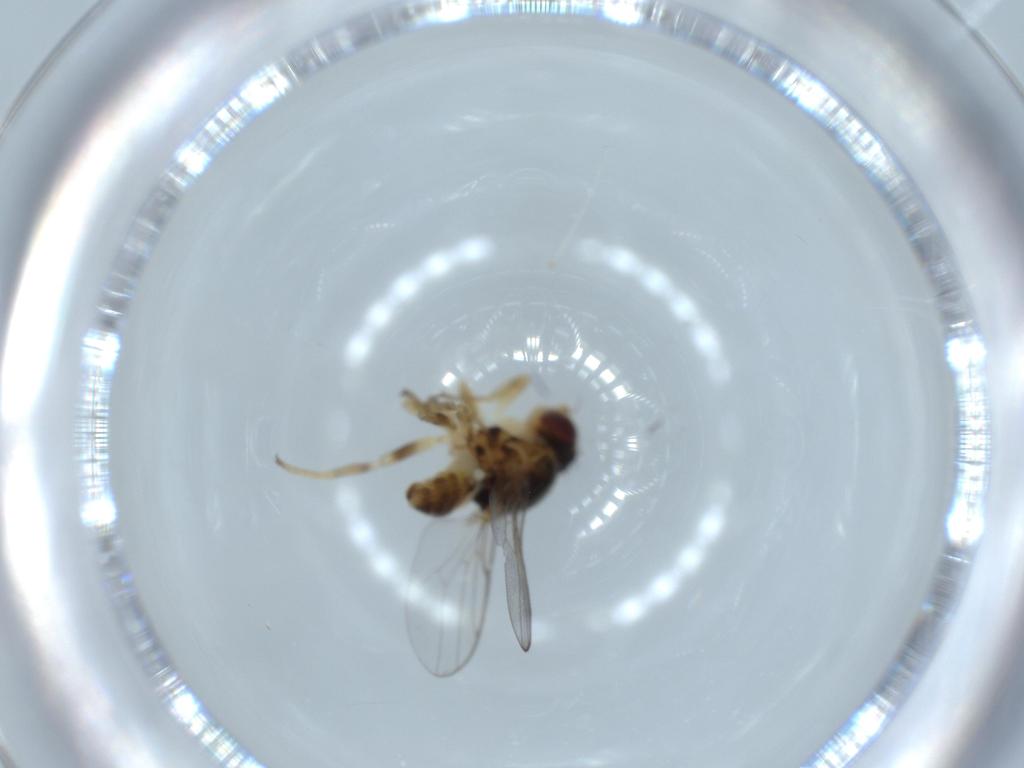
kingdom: Animalia
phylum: Arthropoda
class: Insecta
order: Diptera
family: Chloropidae
